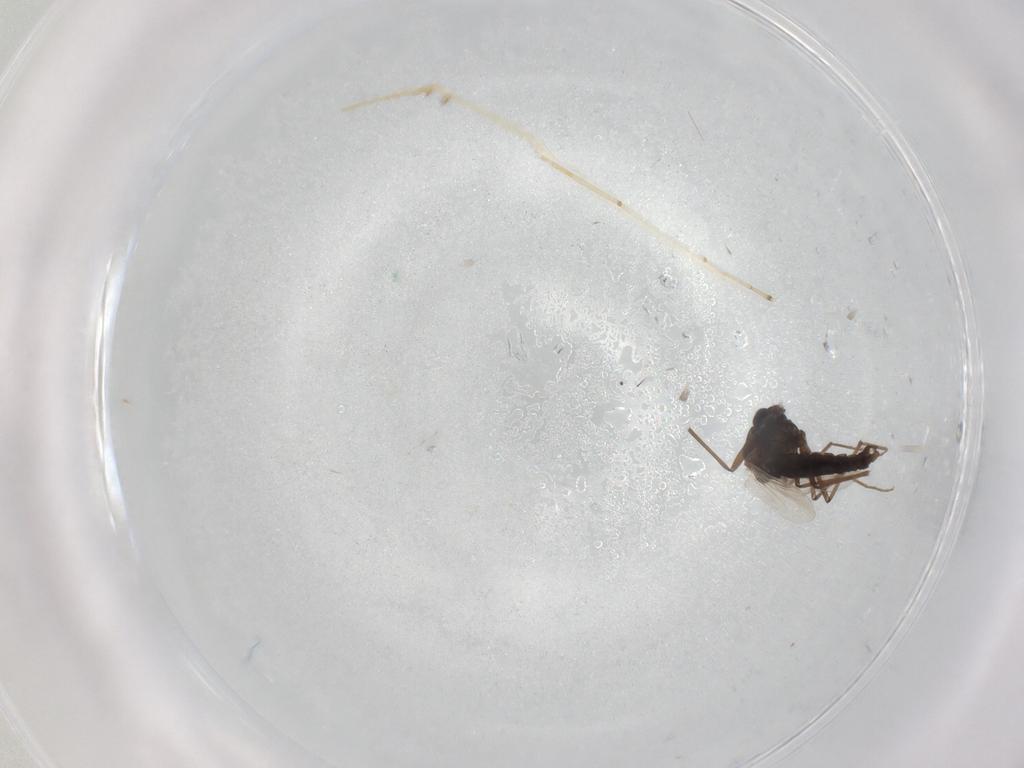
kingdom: Animalia
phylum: Arthropoda
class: Insecta
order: Diptera
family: Chironomidae
